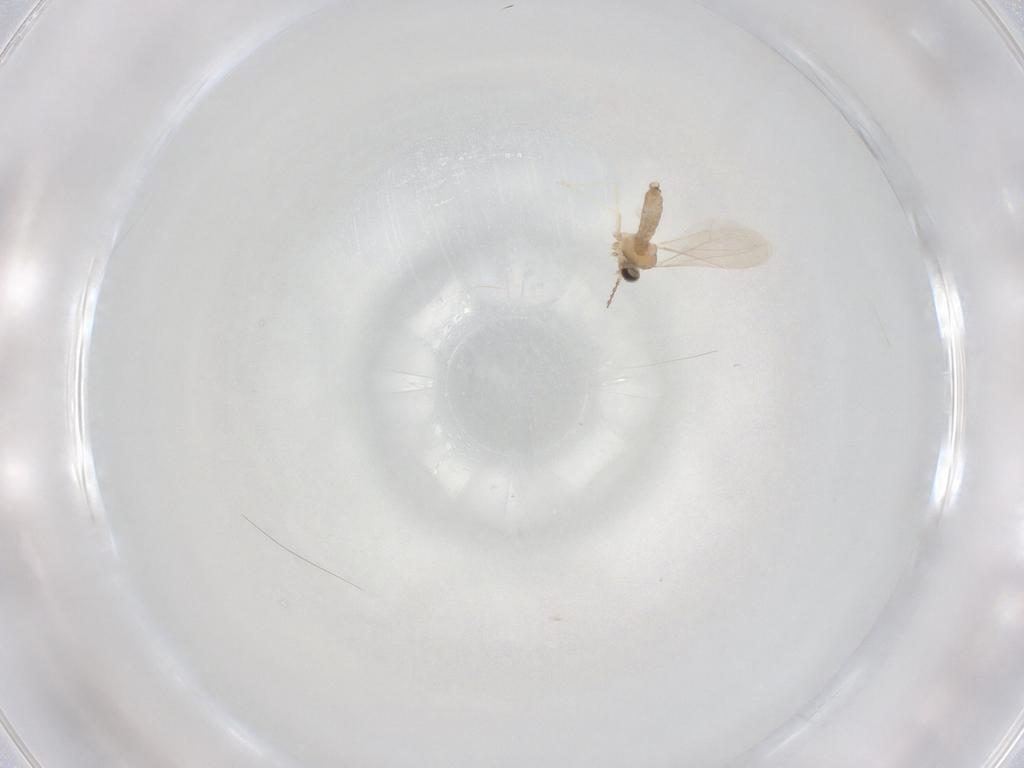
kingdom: Animalia
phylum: Arthropoda
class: Insecta
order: Diptera
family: Cecidomyiidae
